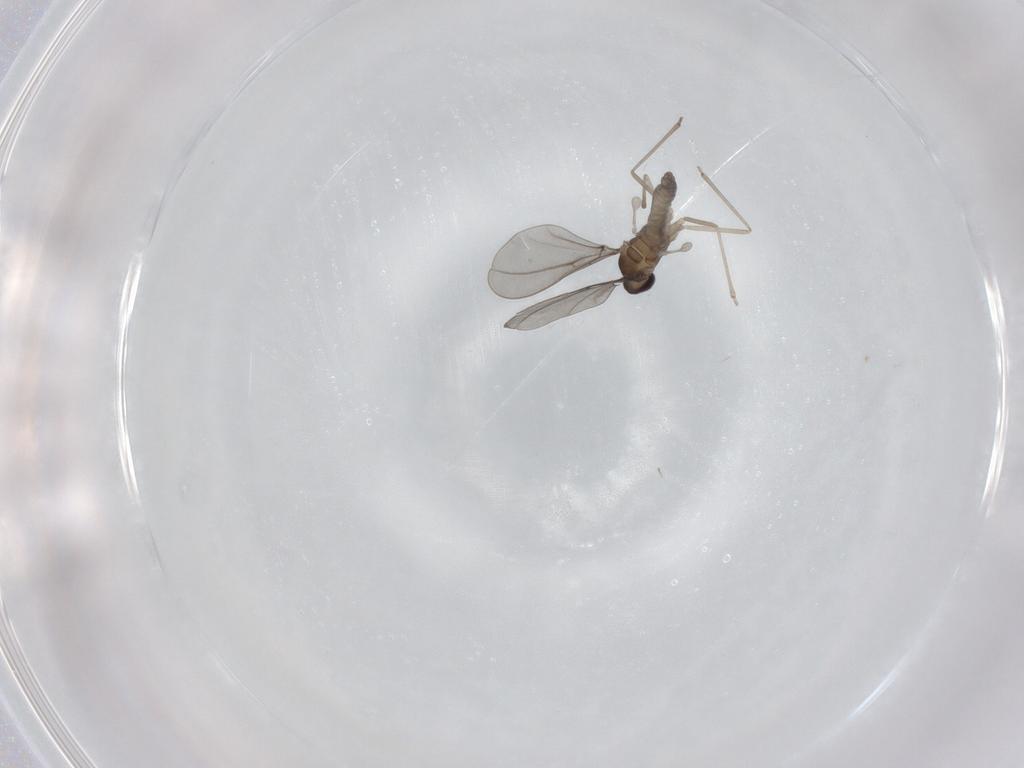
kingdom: Animalia
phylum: Arthropoda
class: Insecta
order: Diptera
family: Cecidomyiidae
